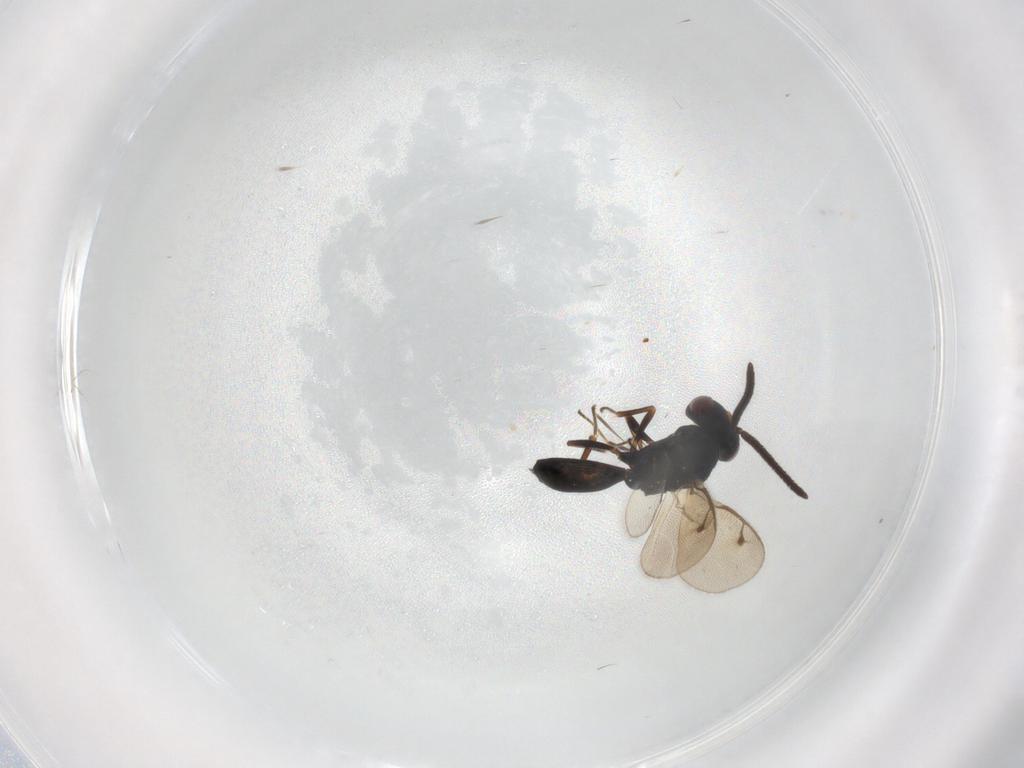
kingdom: Animalia
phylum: Arthropoda
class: Insecta
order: Hymenoptera
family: Pteromalidae
